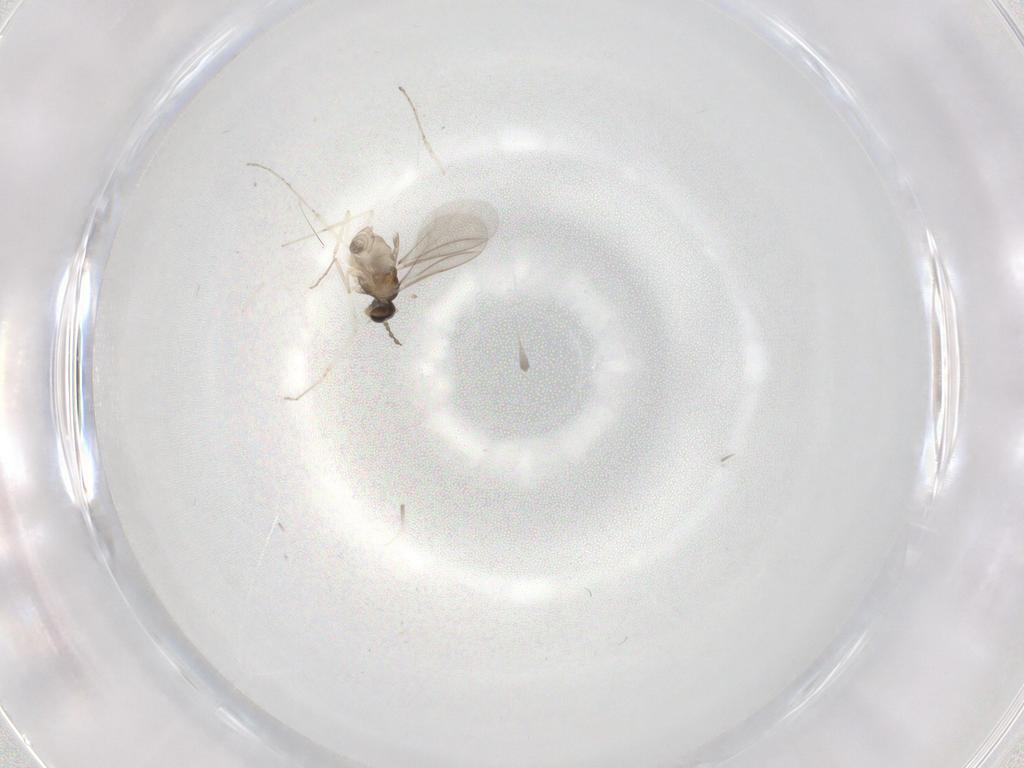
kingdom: Animalia
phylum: Arthropoda
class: Insecta
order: Diptera
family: Cecidomyiidae
